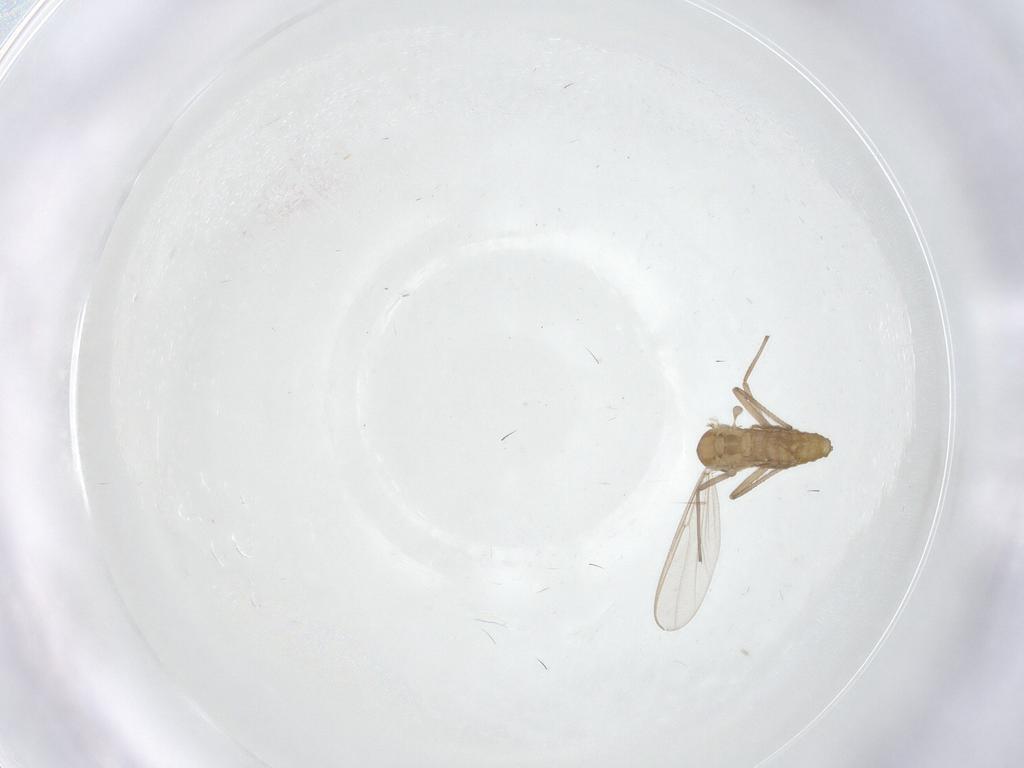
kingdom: Animalia
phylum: Arthropoda
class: Insecta
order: Diptera
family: Chironomidae
